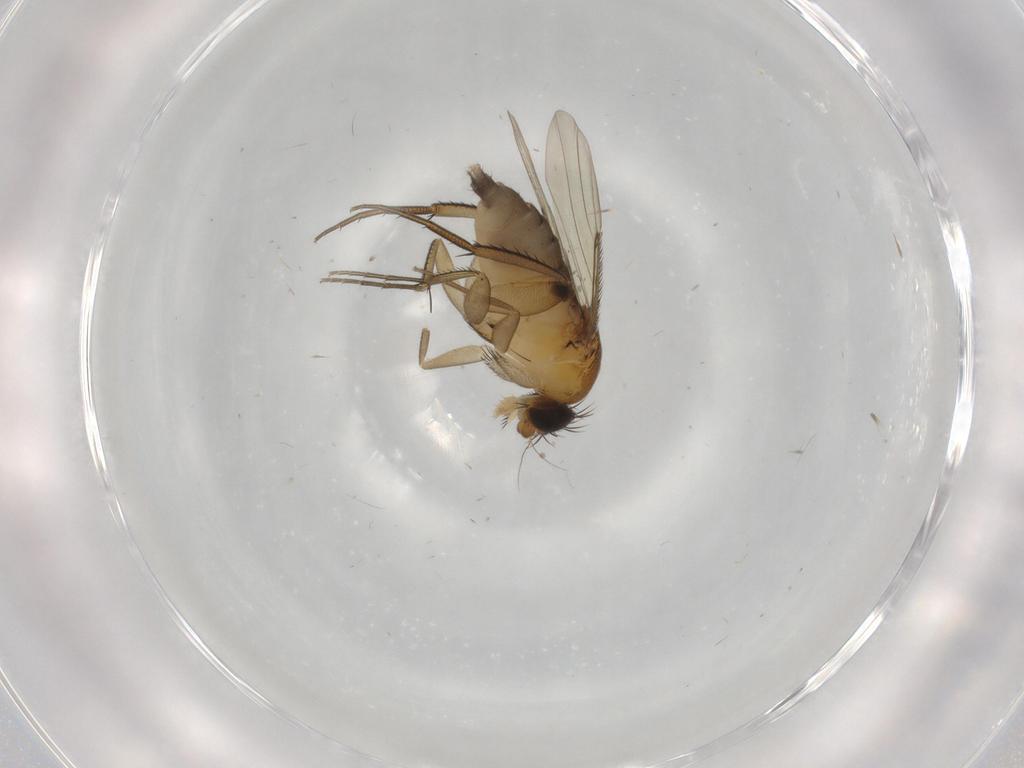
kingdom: Animalia
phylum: Arthropoda
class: Insecta
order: Diptera
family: Phoridae
